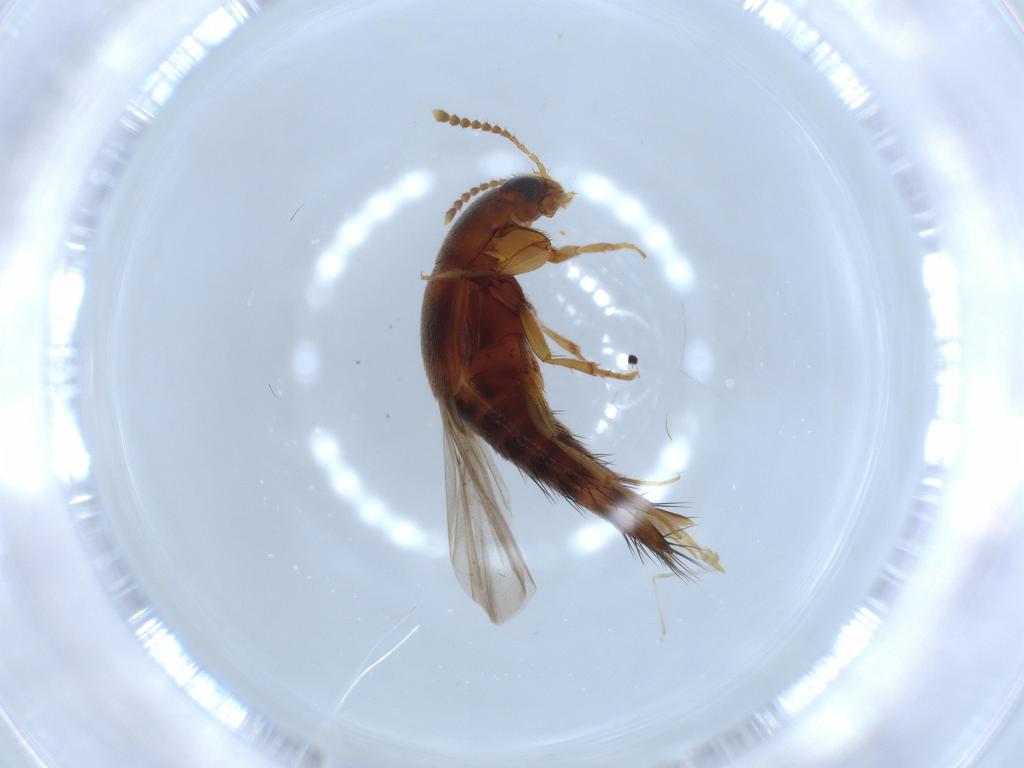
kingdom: Animalia
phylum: Arthropoda
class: Insecta
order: Coleoptera
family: Staphylinidae
